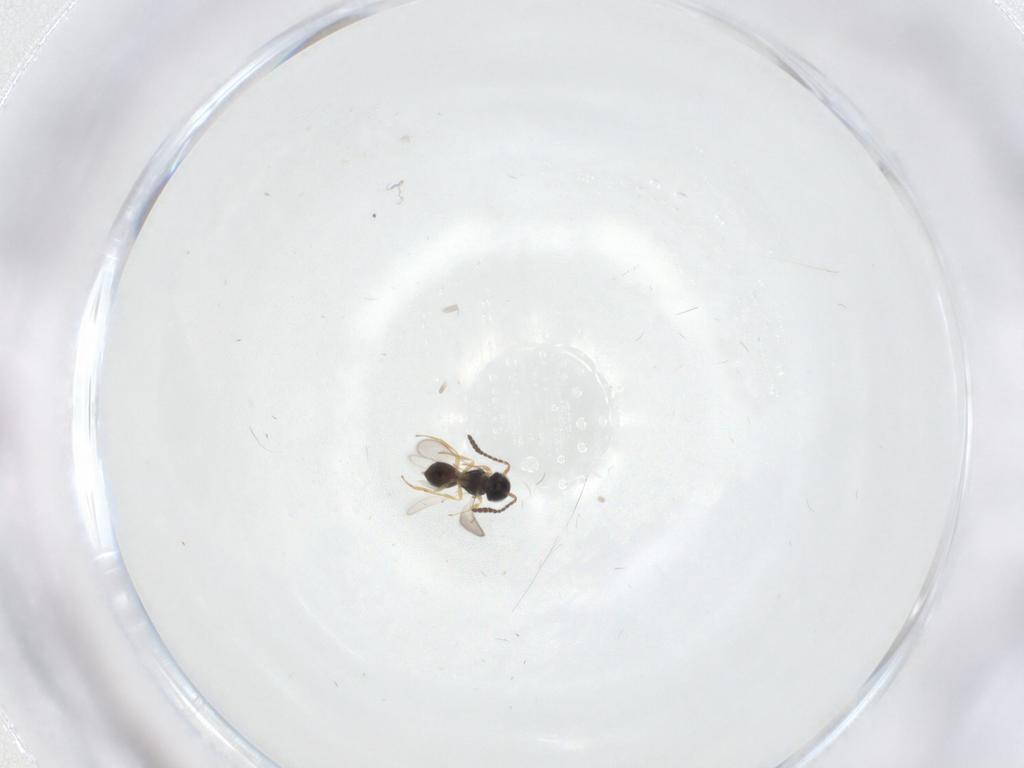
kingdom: Animalia
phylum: Arthropoda
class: Insecta
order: Hymenoptera
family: Scelionidae
